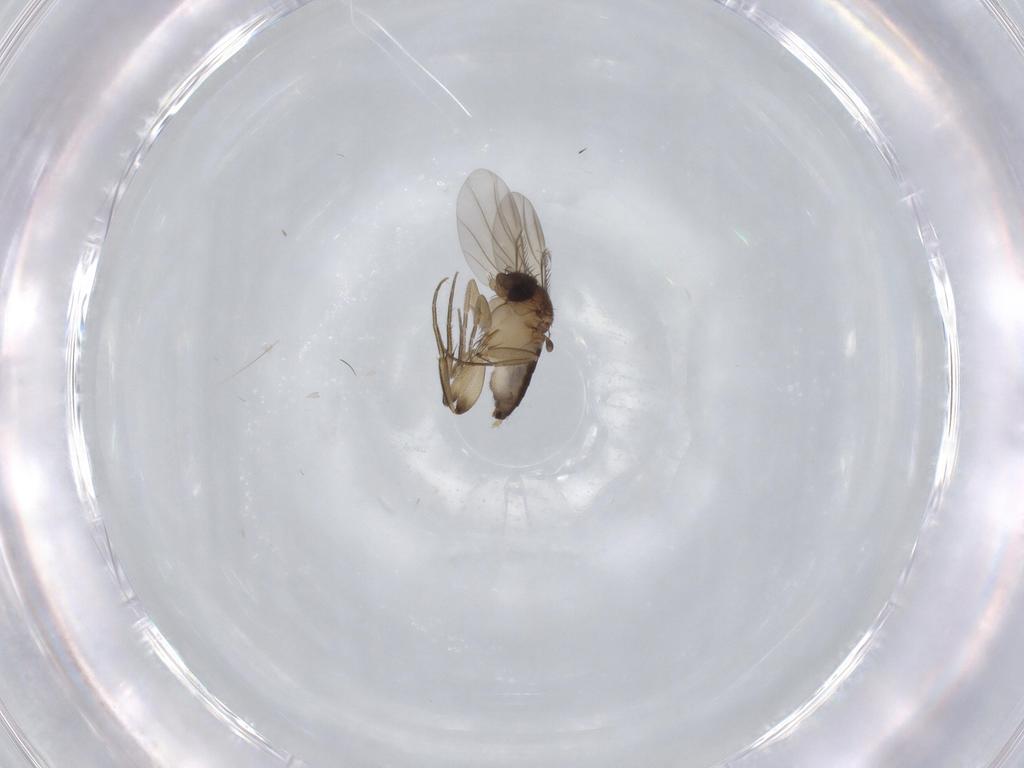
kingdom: Animalia
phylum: Arthropoda
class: Insecta
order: Diptera
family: Phoridae
